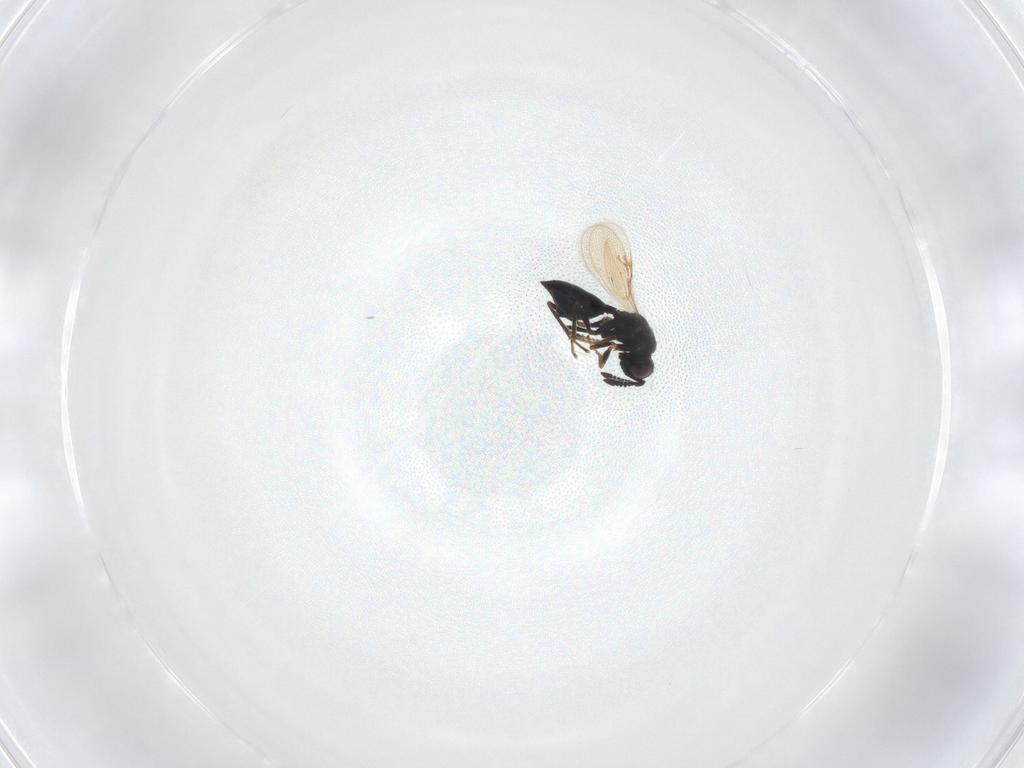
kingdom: Animalia
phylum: Arthropoda
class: Insecta
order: Hymenoptera
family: Chalcidoidea_incertae_sedis
